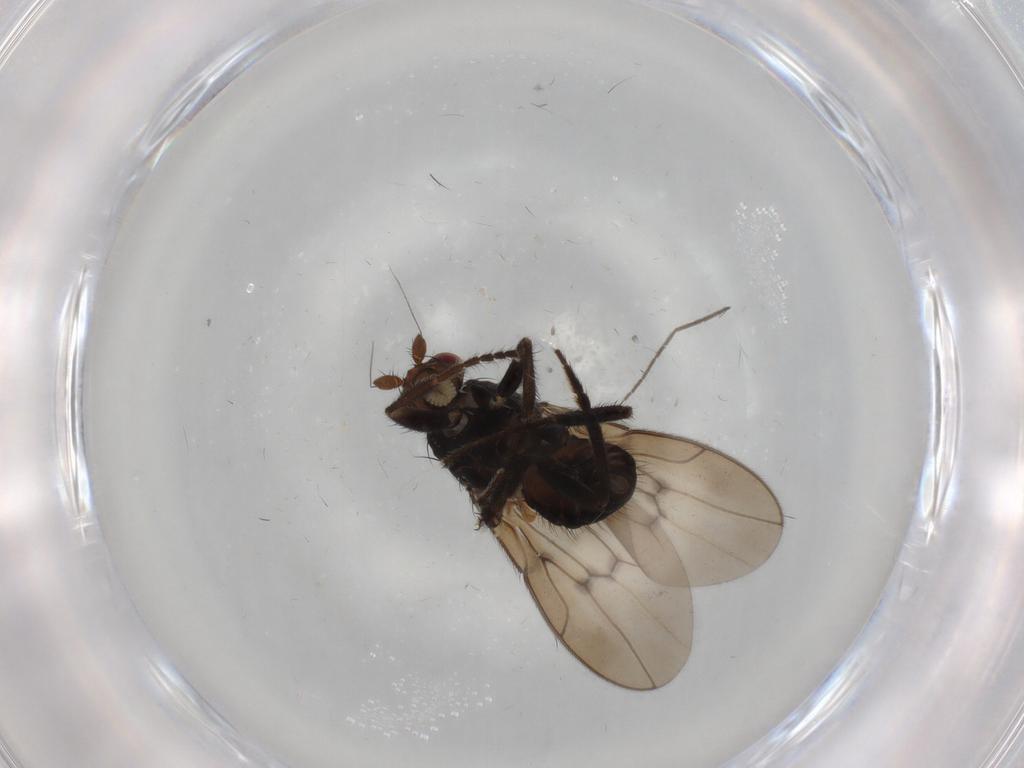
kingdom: Animalia
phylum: Arthropoda
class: Insecta
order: Diptera
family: Sphaeroceridae
